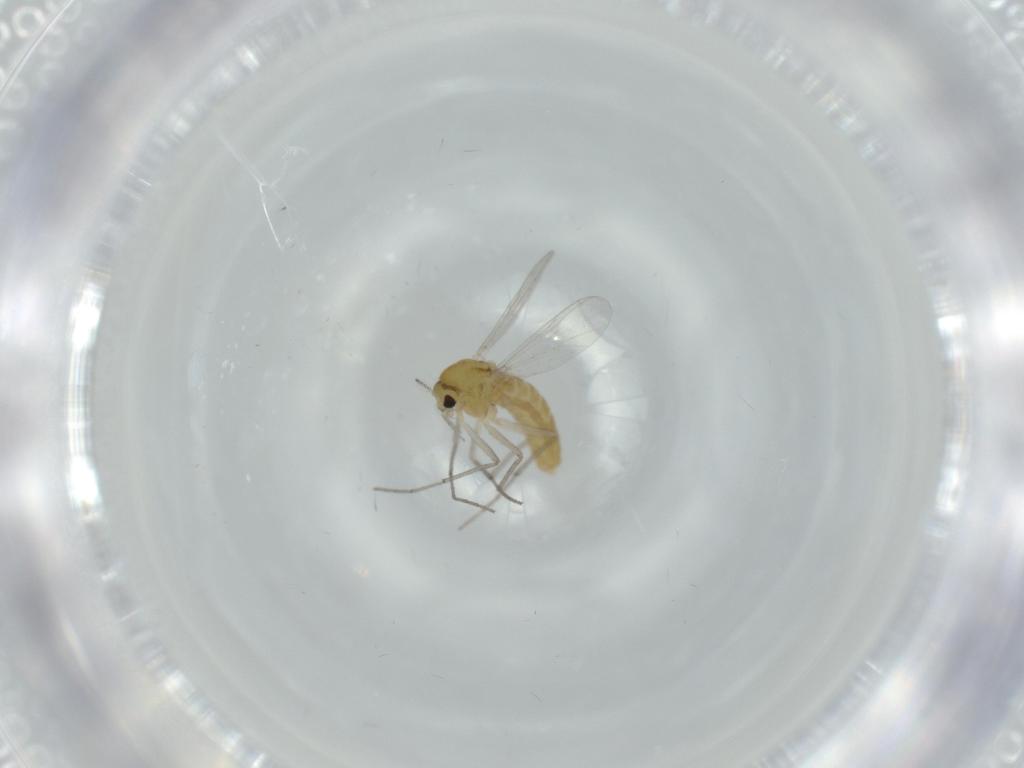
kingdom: Animalia
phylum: Arthropoda
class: Insecta
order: Diptera
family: Chironomidae
